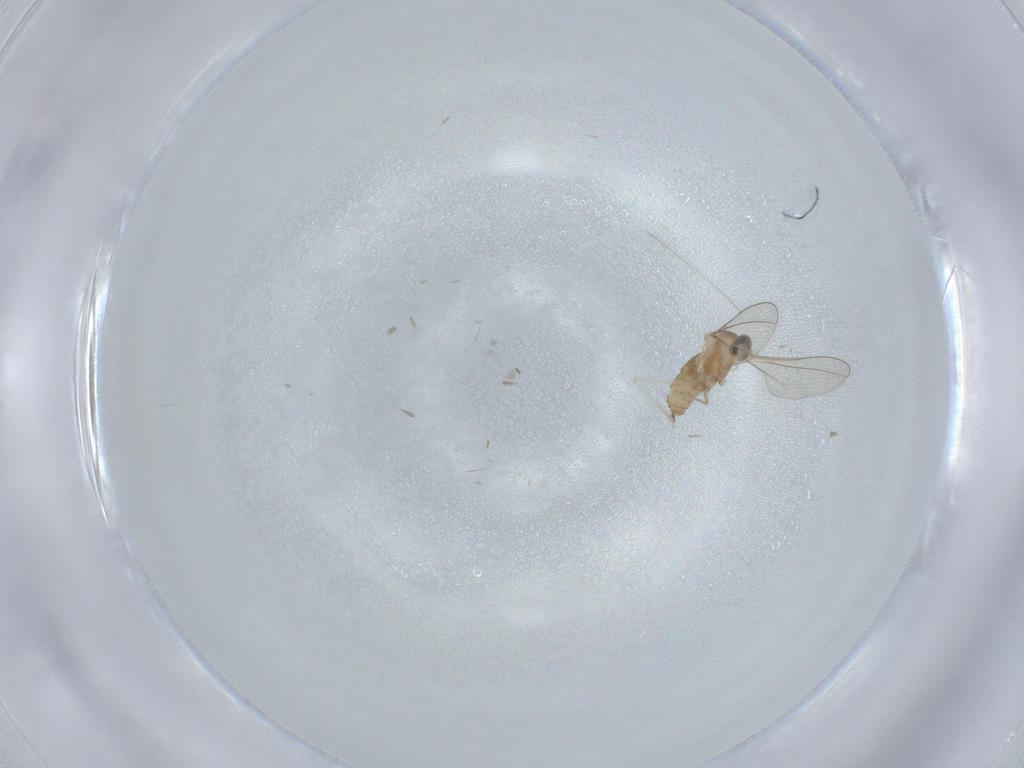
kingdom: Animalia
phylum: Arthropoda
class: Insecta
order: Diptera
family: Cecidomyiidae
